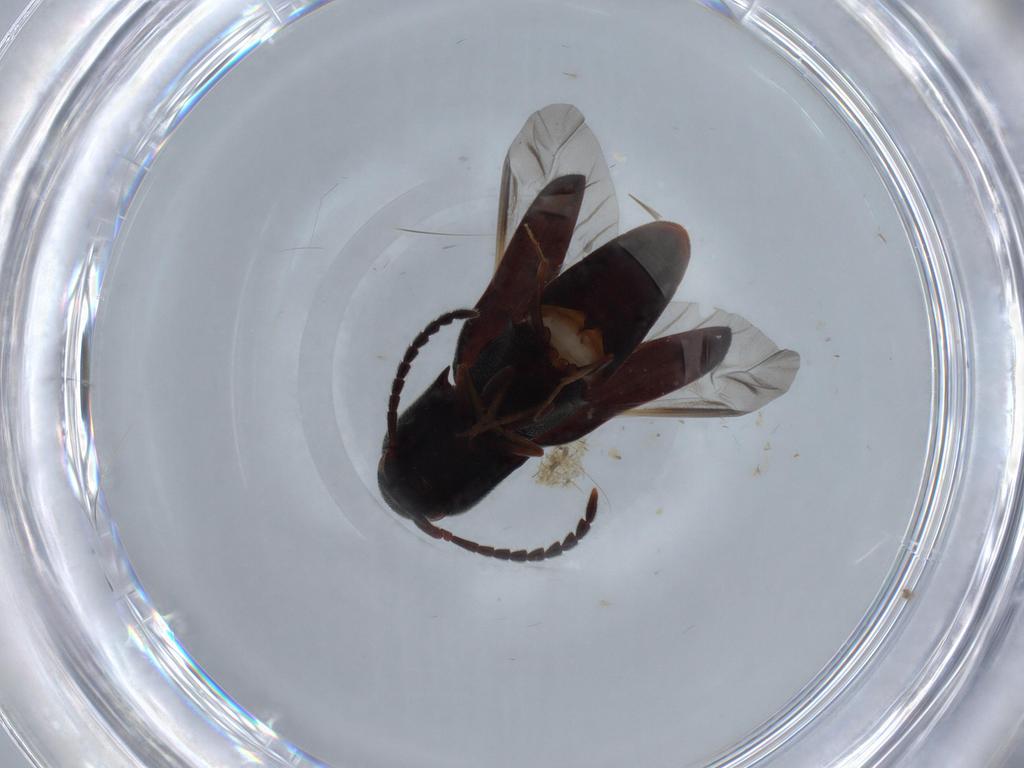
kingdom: Animalia
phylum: Arthropoda
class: Insecta
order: Coleoptera
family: Eucnemidae
